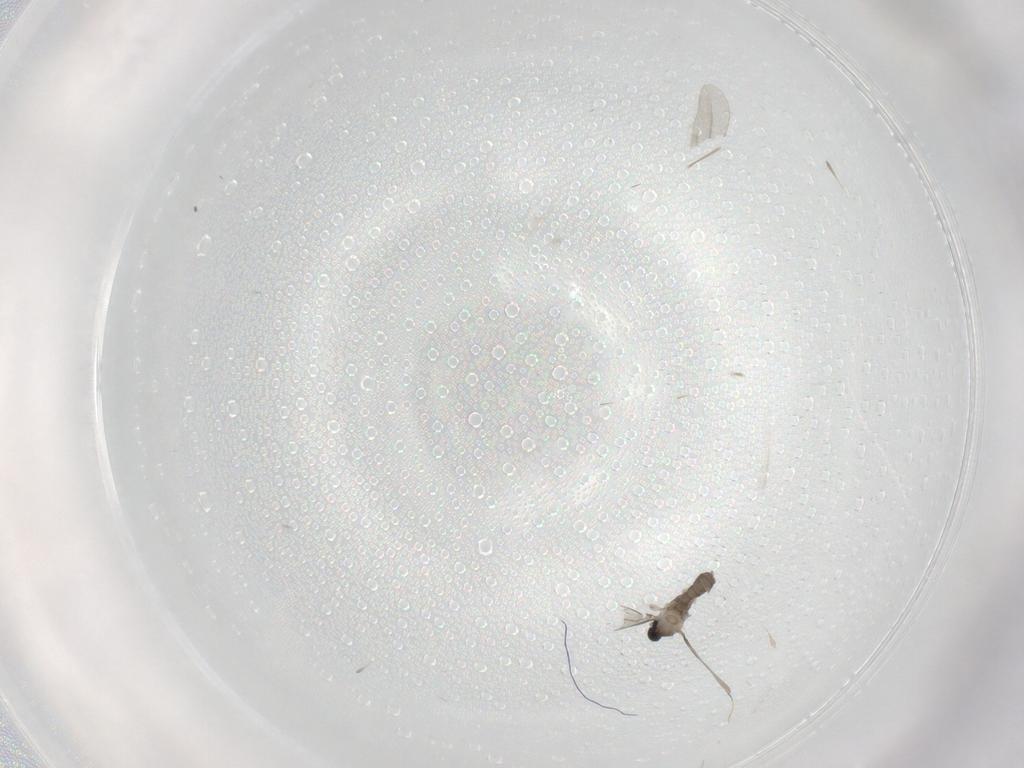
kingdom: Animalia
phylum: Arthropoda
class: Insecta
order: Diptera
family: Cecidomyiidae
